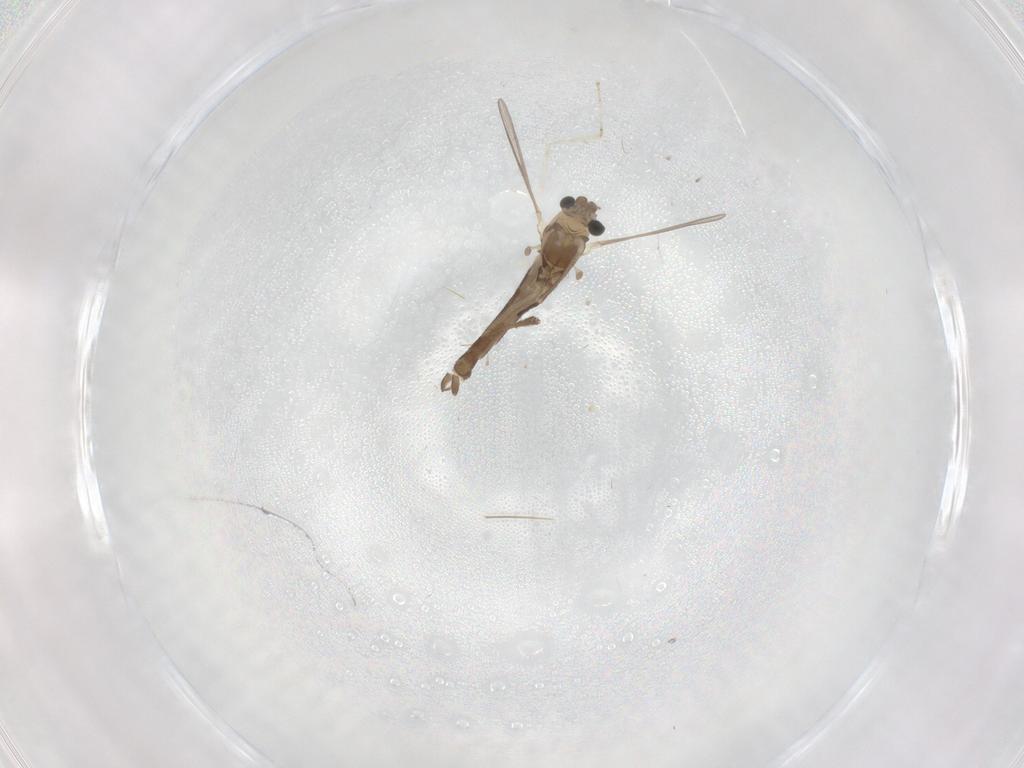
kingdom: Animalia
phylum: Arthropoda
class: Insecta
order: Diptera
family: Chironomidae
